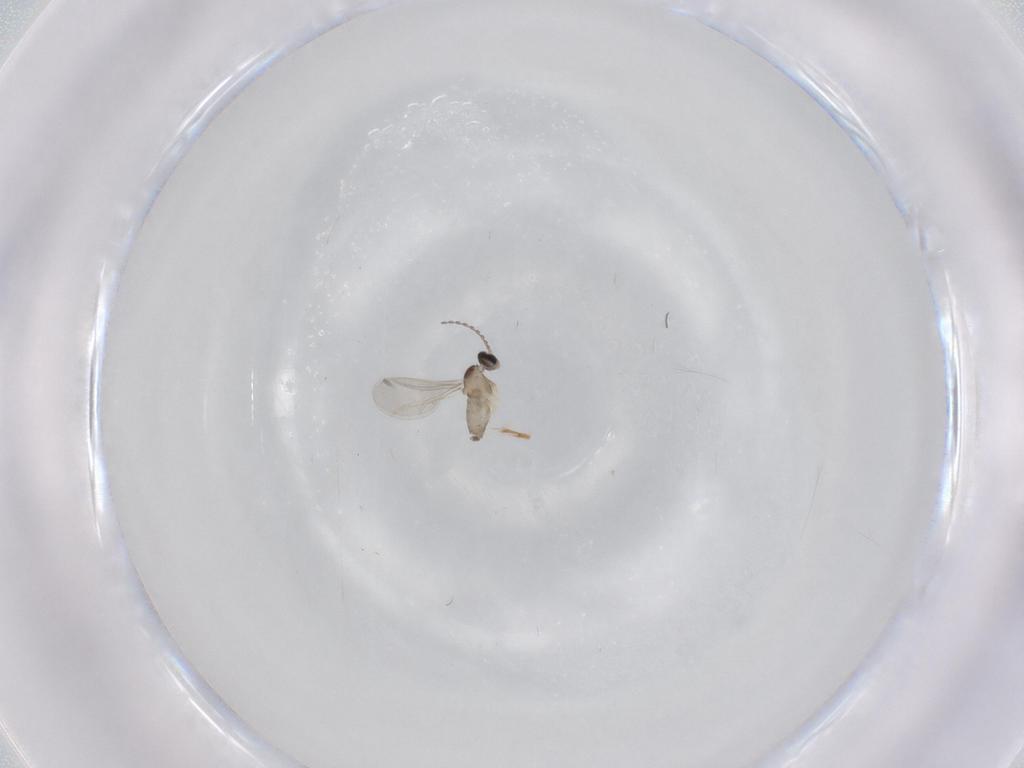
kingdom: Animalia
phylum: Arthropoda
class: Insecta
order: Diptera
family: Cecidomyiidae
